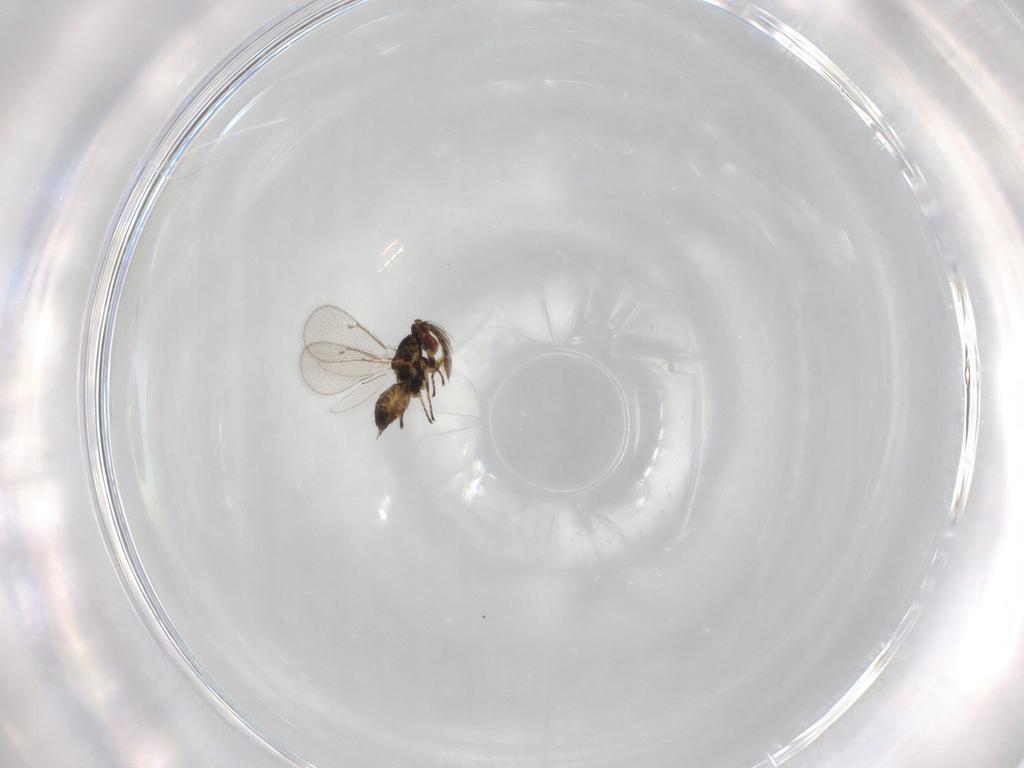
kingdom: Animalia
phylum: Arthropoda
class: Insecta
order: Hymenoptera
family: Eulophidae
